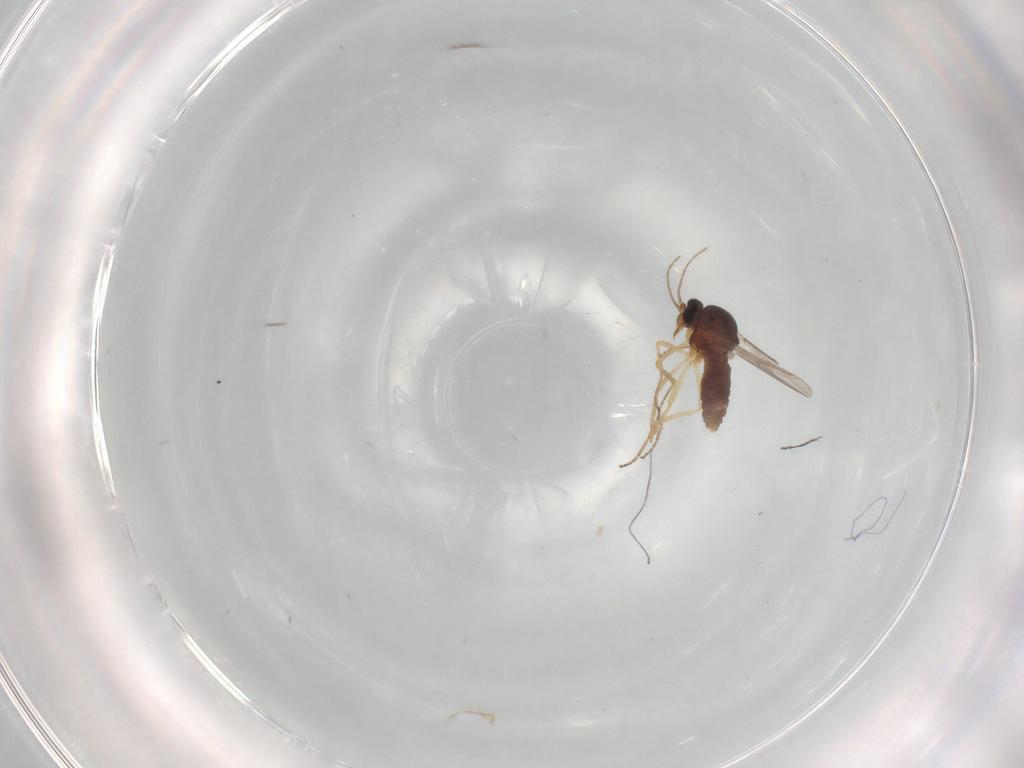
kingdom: Animalia
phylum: Arthropoda
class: Insecta
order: Diptera
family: Ceratopogonidae
